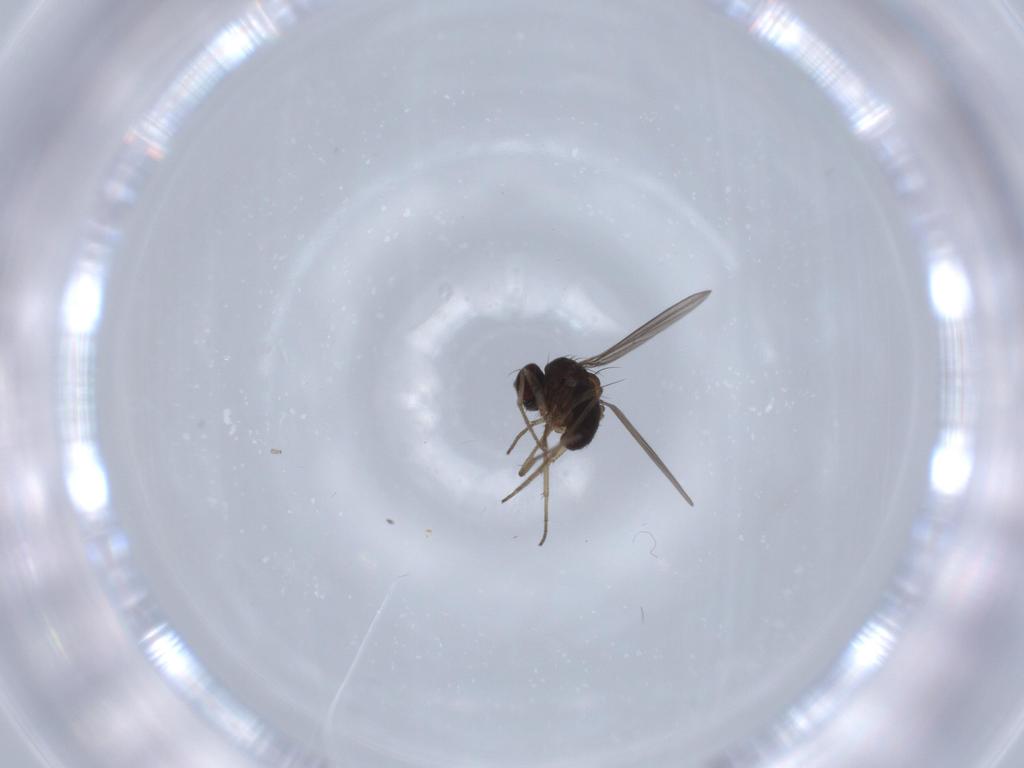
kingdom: Animalia
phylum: Arthropoda
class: Insecta
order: Diptera
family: Dolichopodidae
